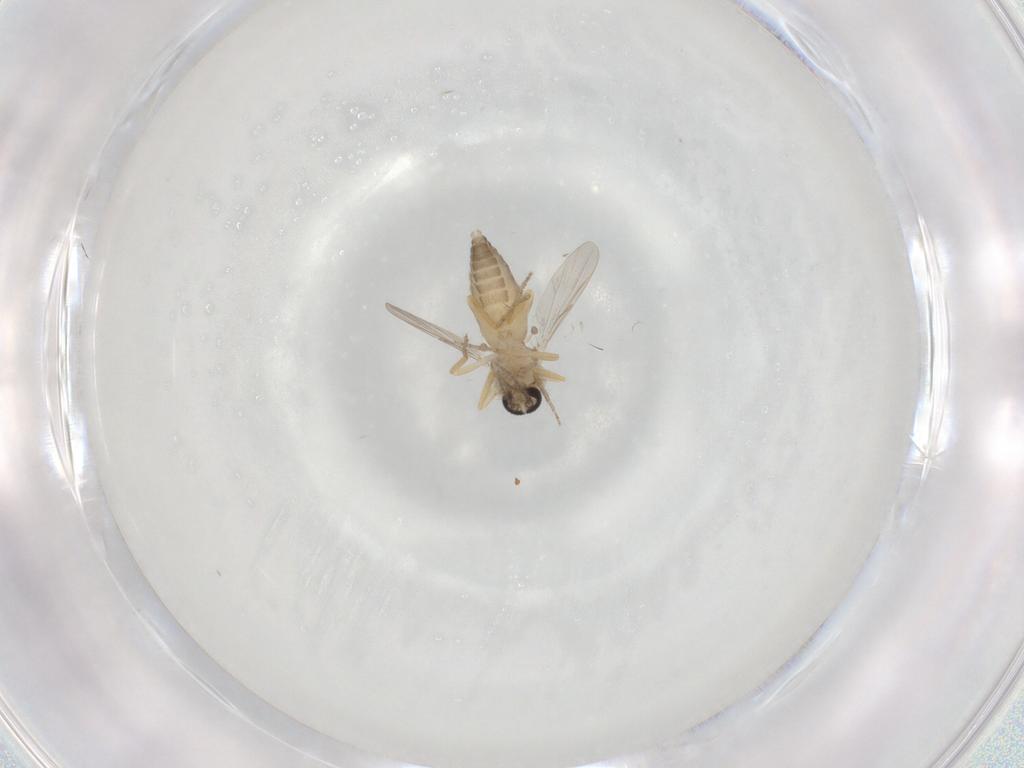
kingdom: Animalia
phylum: Arthropoda
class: Insecta
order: Diptera
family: Ceratopogonidae
